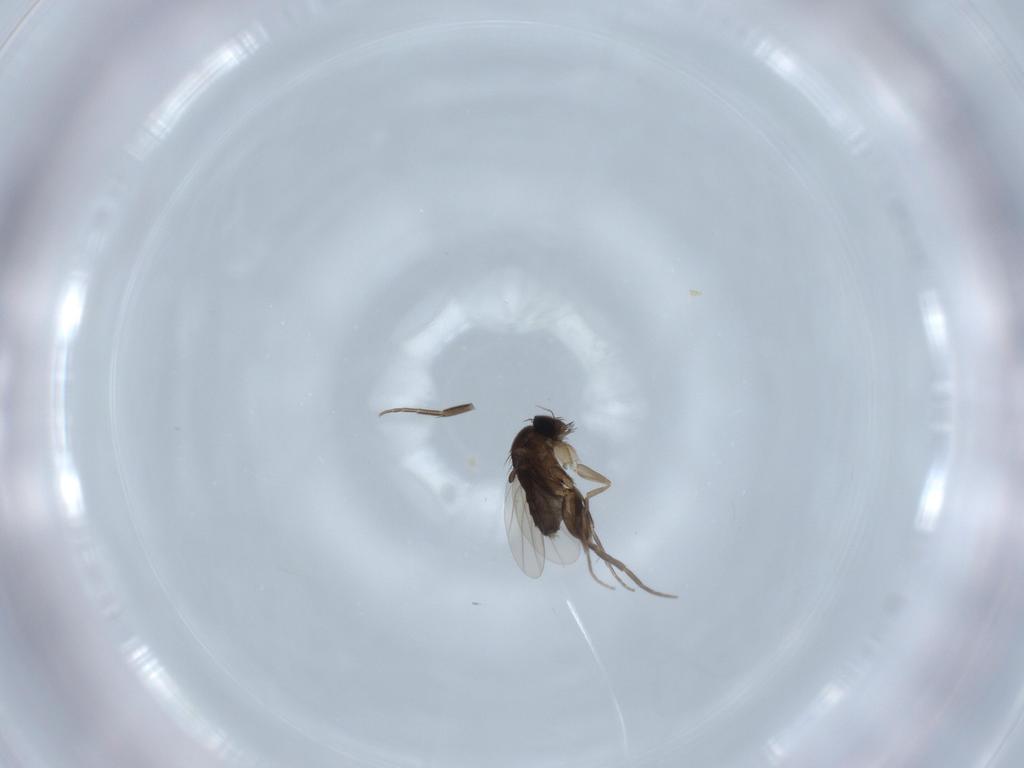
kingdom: Animalia
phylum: Arthropoda
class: Insecta
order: Diptera
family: Phoridae
